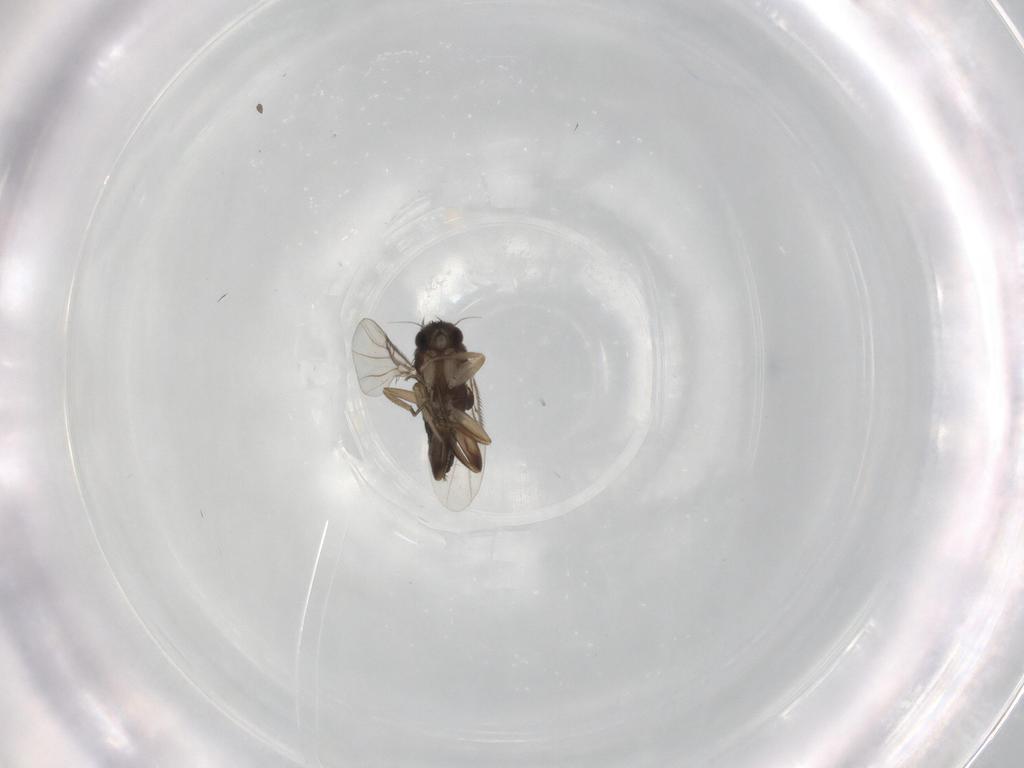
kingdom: Animalia
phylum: Arthropoda
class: Insecta
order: Diptera
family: Phoridae
